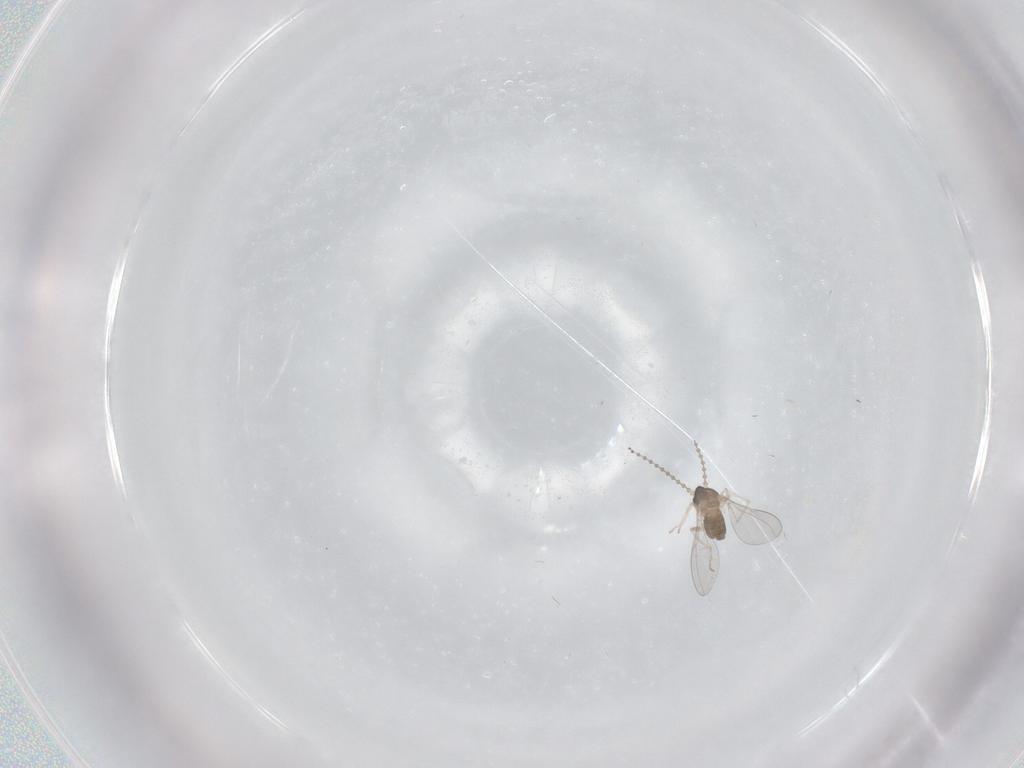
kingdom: Animalia
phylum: Arthropoda
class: Insecta
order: Diptera
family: Cecidomyiidae
